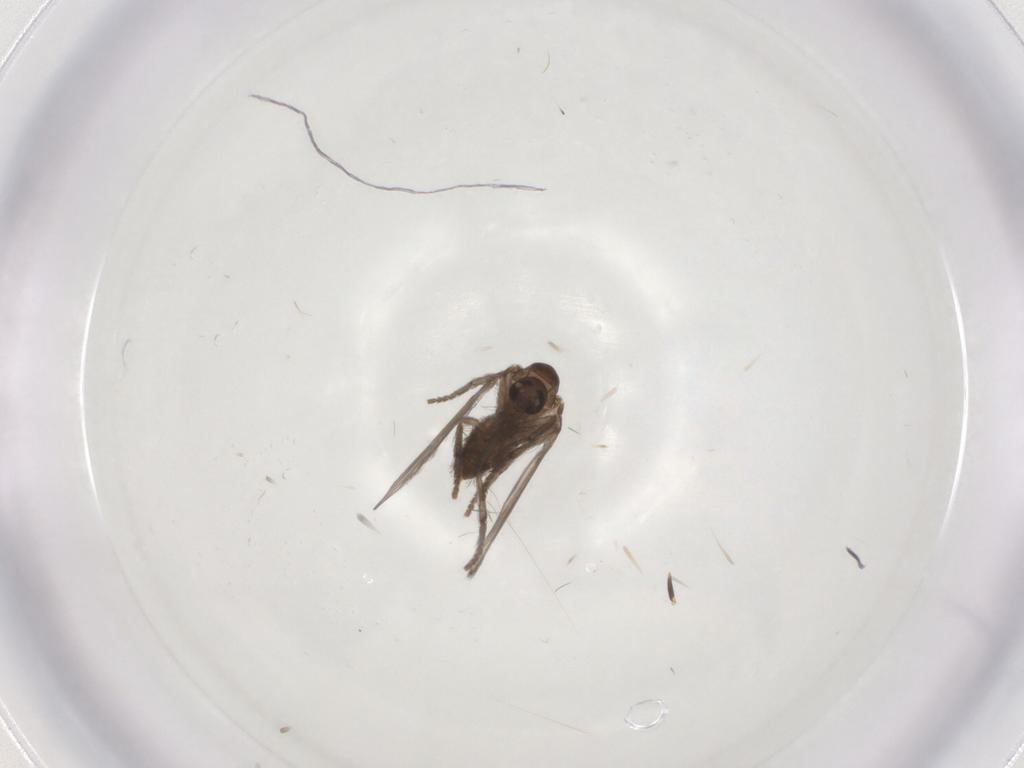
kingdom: Animalia
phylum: Arthropoda
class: Insecta
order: Diptera
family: Psychodidae
